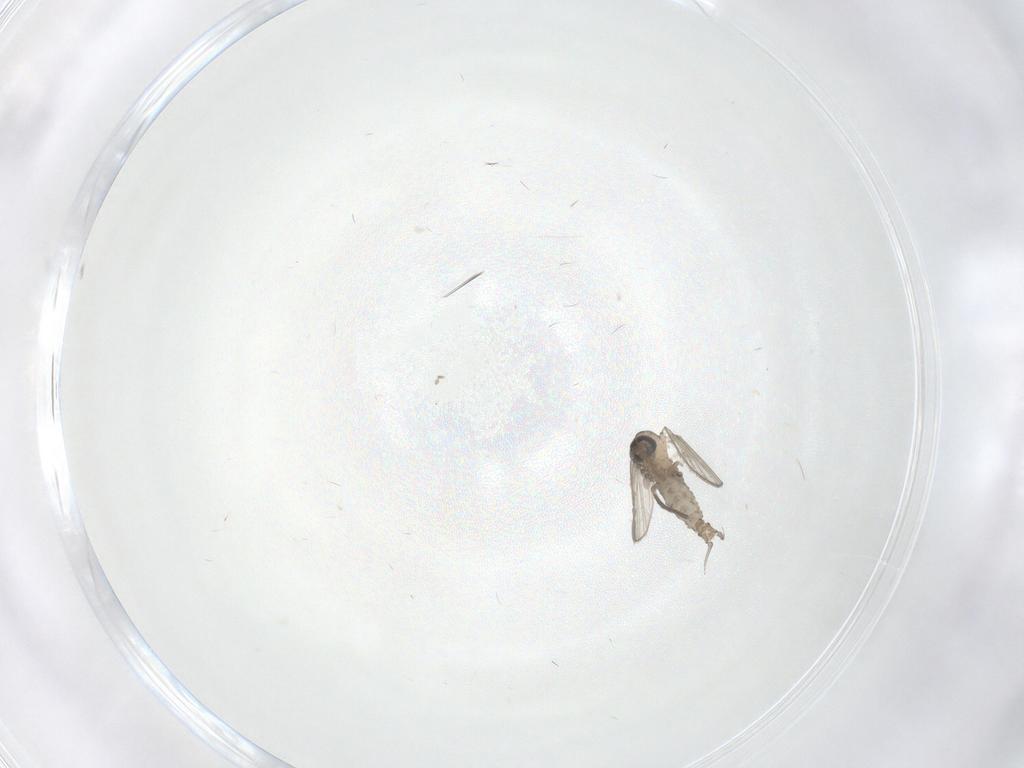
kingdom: Animalia
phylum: Arthropoda
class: Insecta
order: Diptera
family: Psychodidae
